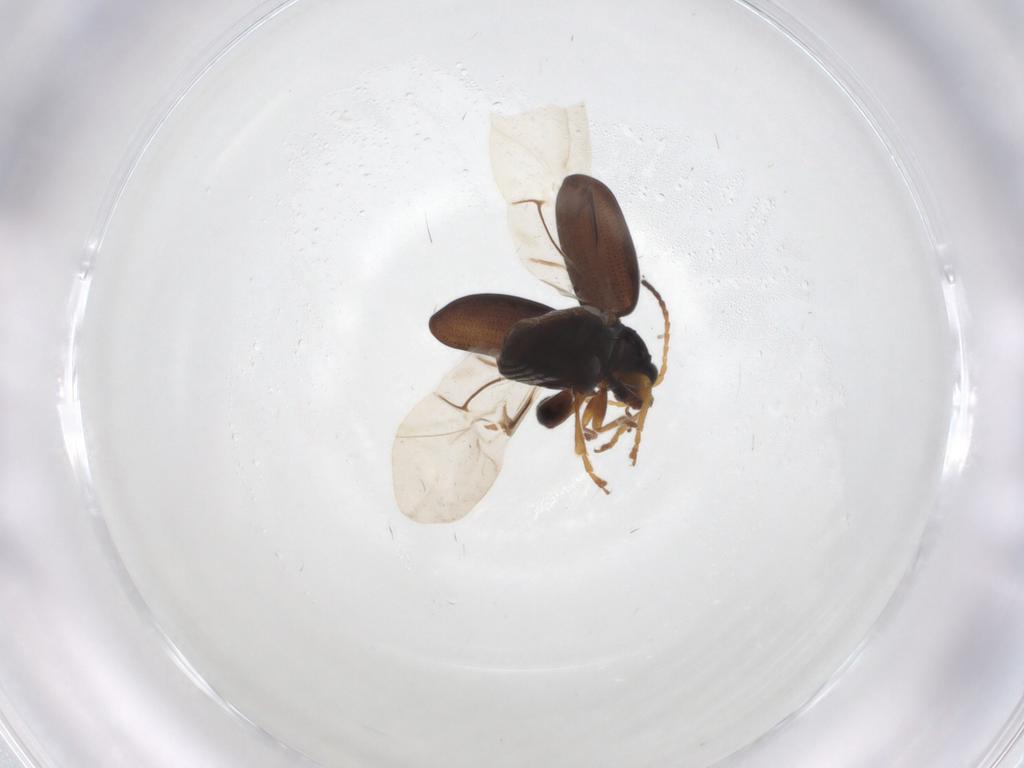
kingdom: Animalia
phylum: Arthropoda
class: Insecta
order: Coleoptera
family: Chrysomelidae
